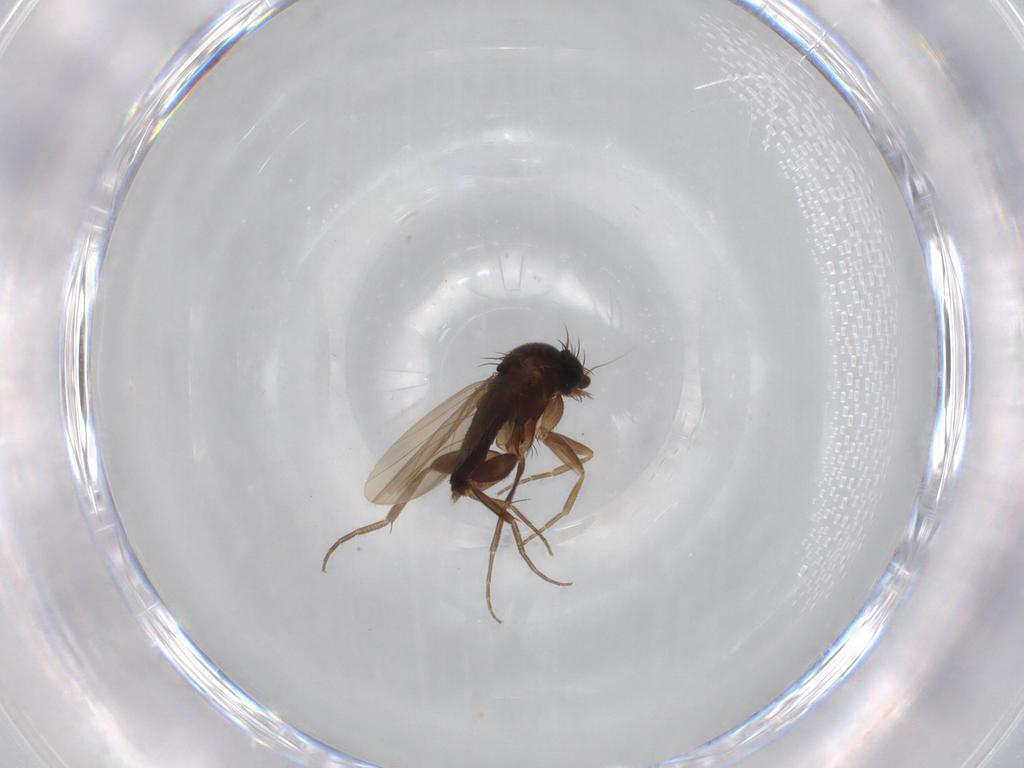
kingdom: Animalia
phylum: Arthropoda
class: Insecta
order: Diptera
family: Phoridae
